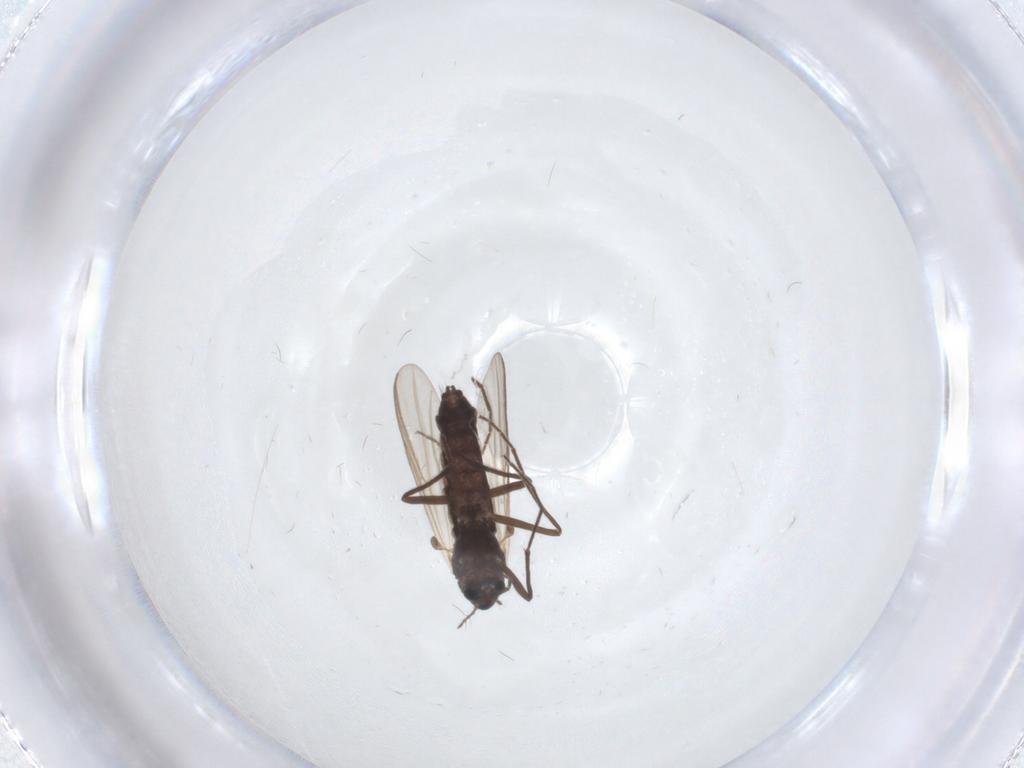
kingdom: Animalia
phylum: Arthropoda
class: Insecta
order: Diptera
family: Chironomidae
